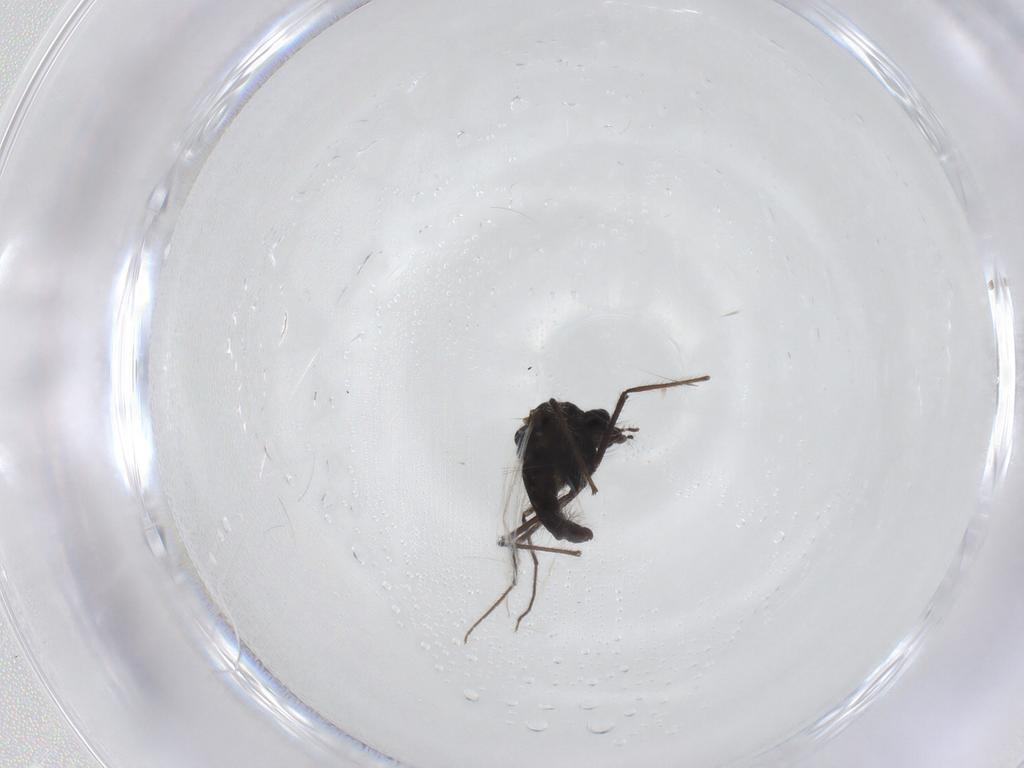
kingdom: Animalia
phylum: Arthropoda
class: Insecta
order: Diptera
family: Chironomidae
